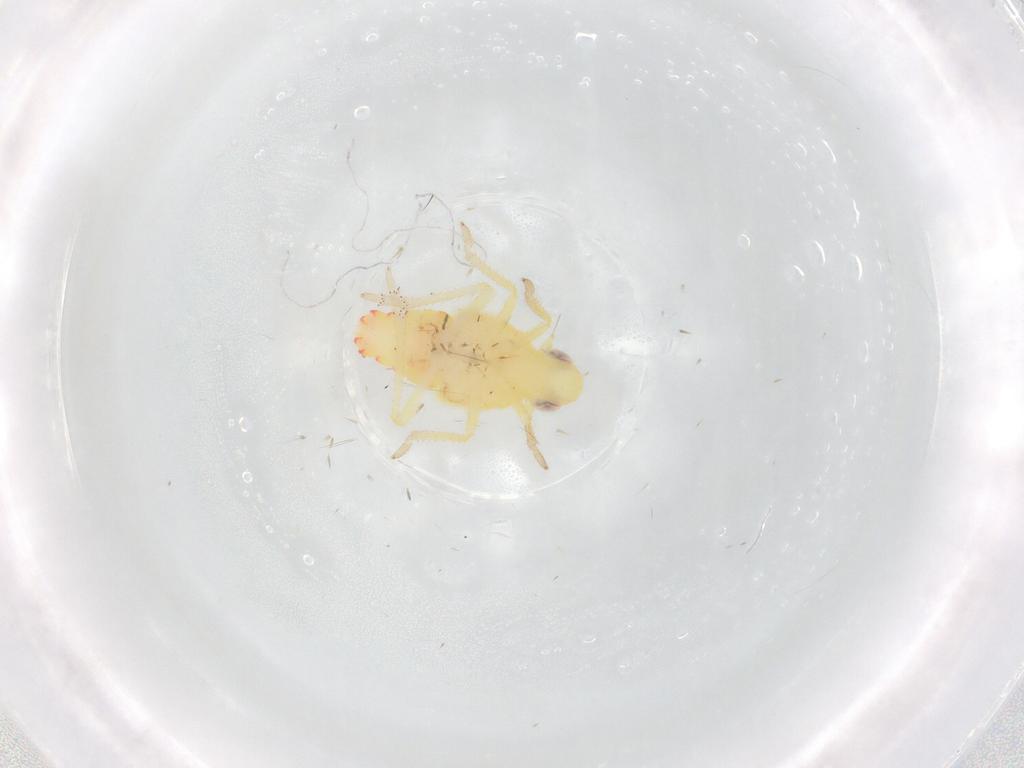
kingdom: Animalia
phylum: Arthropoda
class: Insecta
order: Hemiptera
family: Tropiduchidae
